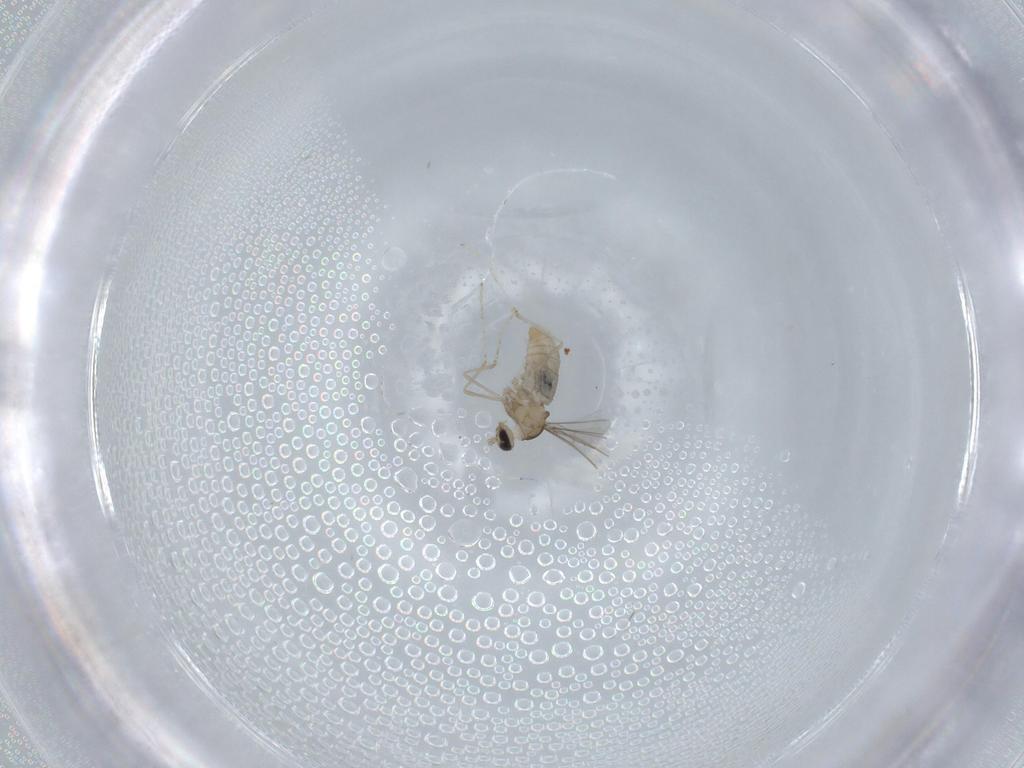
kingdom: Animalia
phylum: Arthropoda
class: Insecta
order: Diptera
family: Cecidomyiidae
